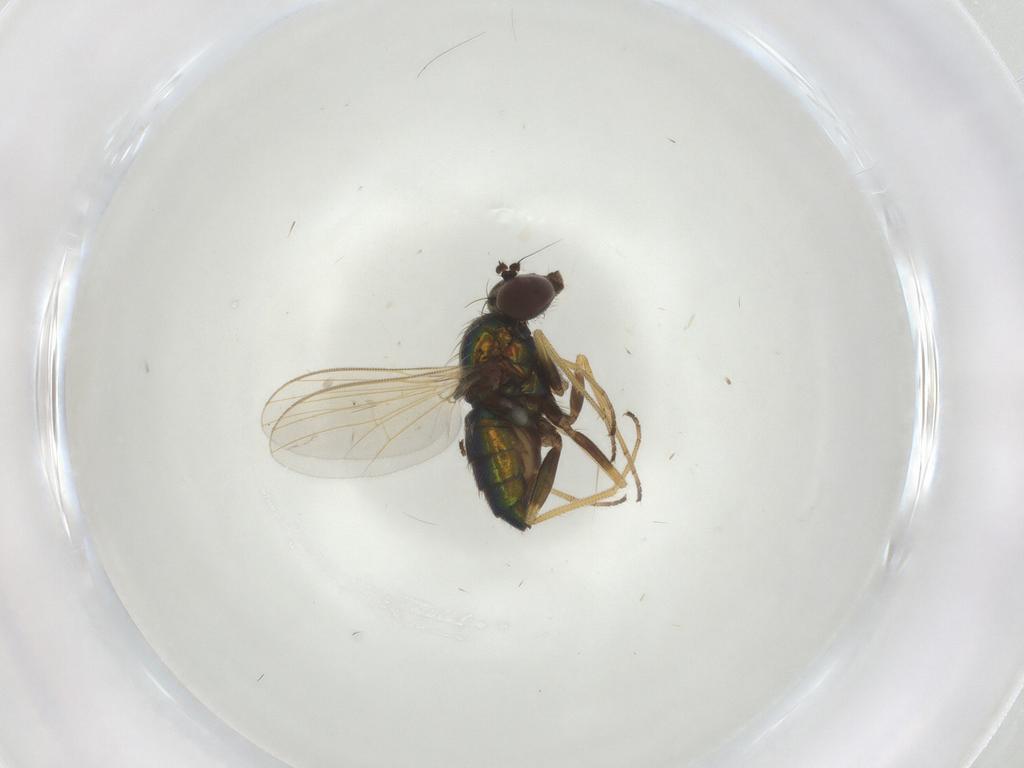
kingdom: Animalia
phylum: Arthropoda
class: Insecta
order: Diptera
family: Dolichopodidae
